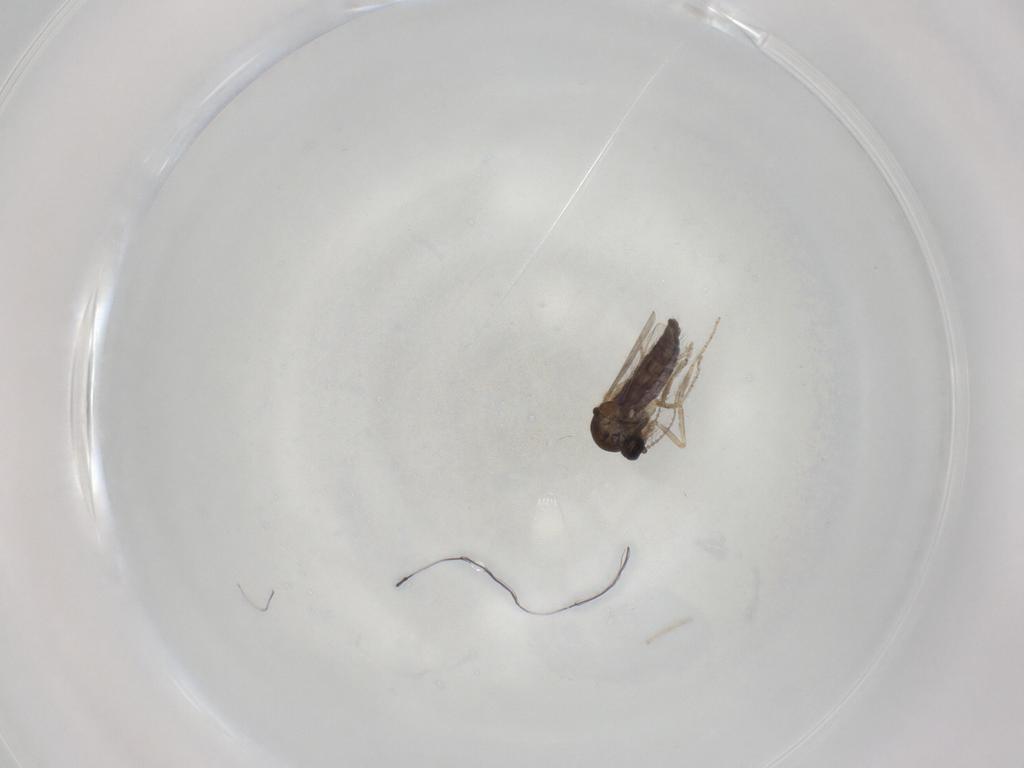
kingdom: Animalia
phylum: Arthropoda
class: Insecta
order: Diptera
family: Ceratopogonidae
